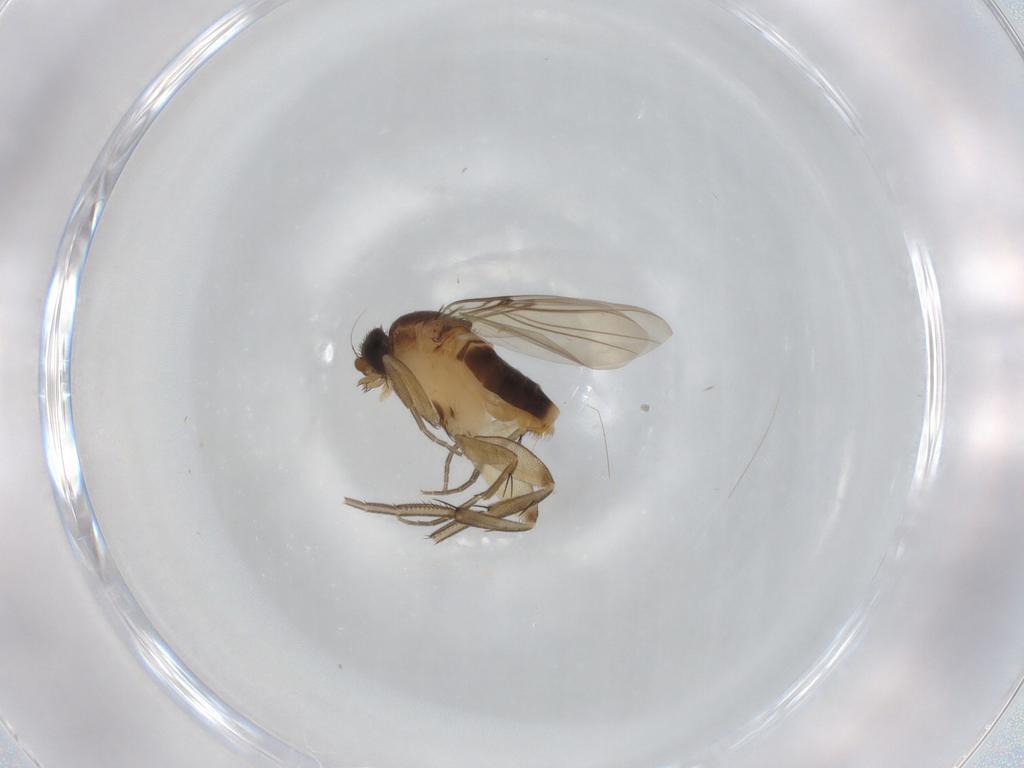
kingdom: Animalia
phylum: Arthropoda
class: Insecta
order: Diptera
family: Phoridae
